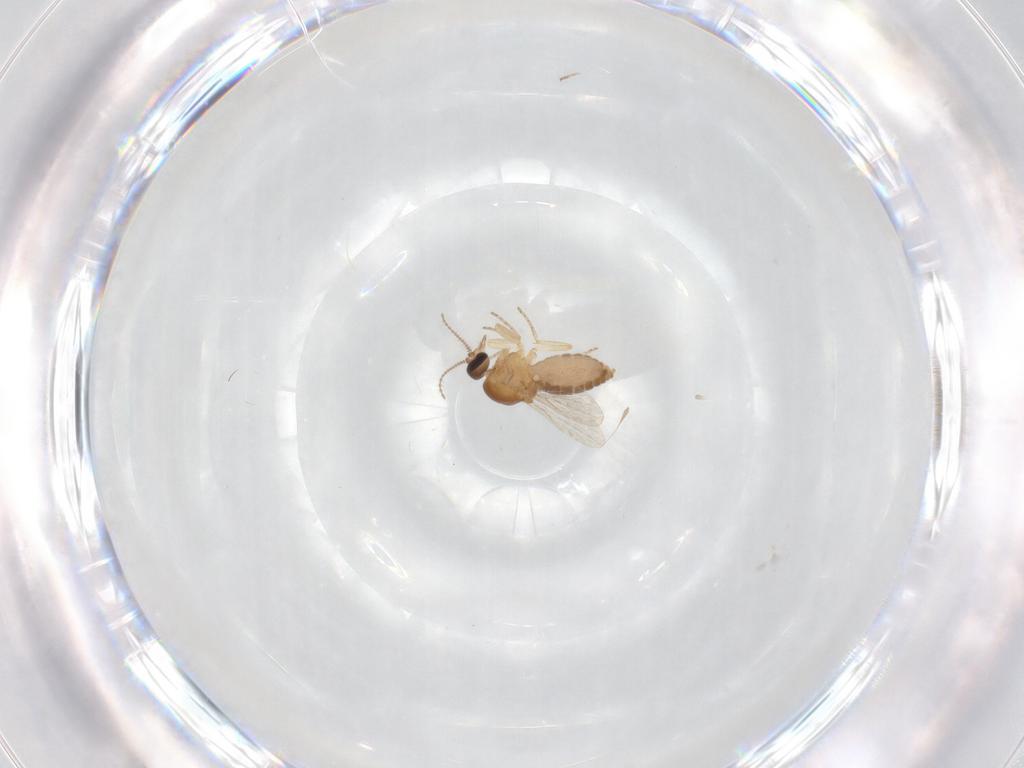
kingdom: Animalia
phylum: Arthropoda
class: Insecta
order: Diptera
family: Ceratopogonidae
